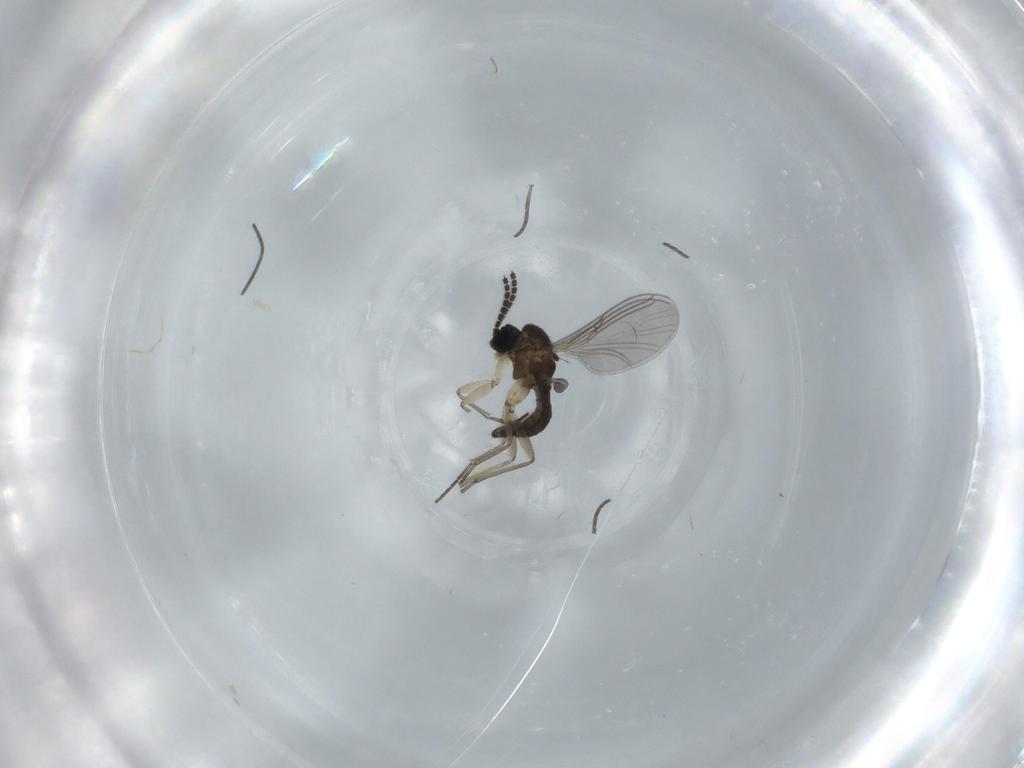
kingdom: Animalia
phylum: Arthropoda
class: Insecta
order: Diptera
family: Sciaridae
